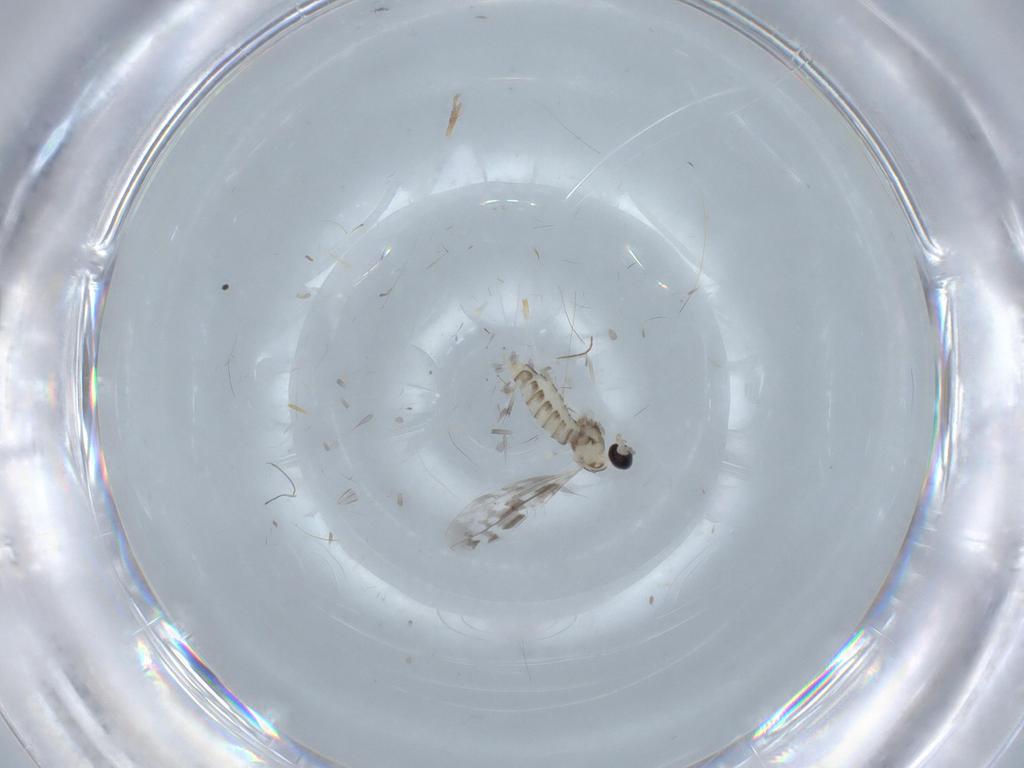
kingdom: Animalia
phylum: Arthropoda
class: Insecta
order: Diptera
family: Cecidomyiidae
